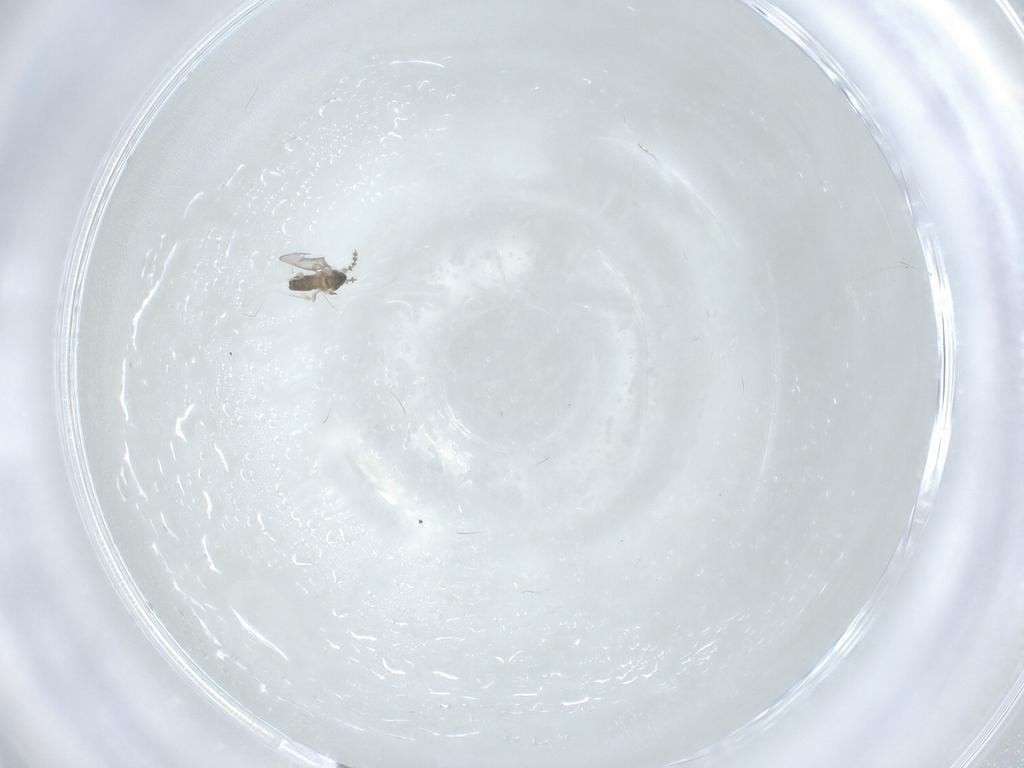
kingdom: Animalia
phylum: Arthropoda
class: Insecta
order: Diptera
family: Cecidomyiidae
